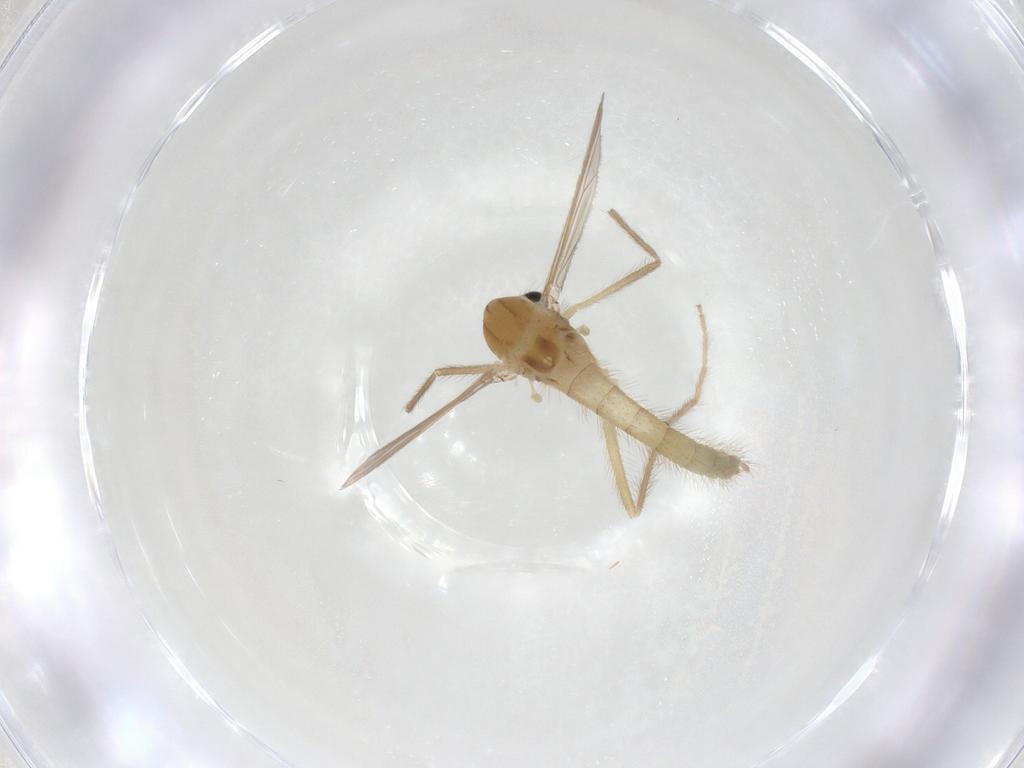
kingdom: Animalia
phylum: Arthropoda
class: Insecta
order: Diptera
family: Chironomidae
